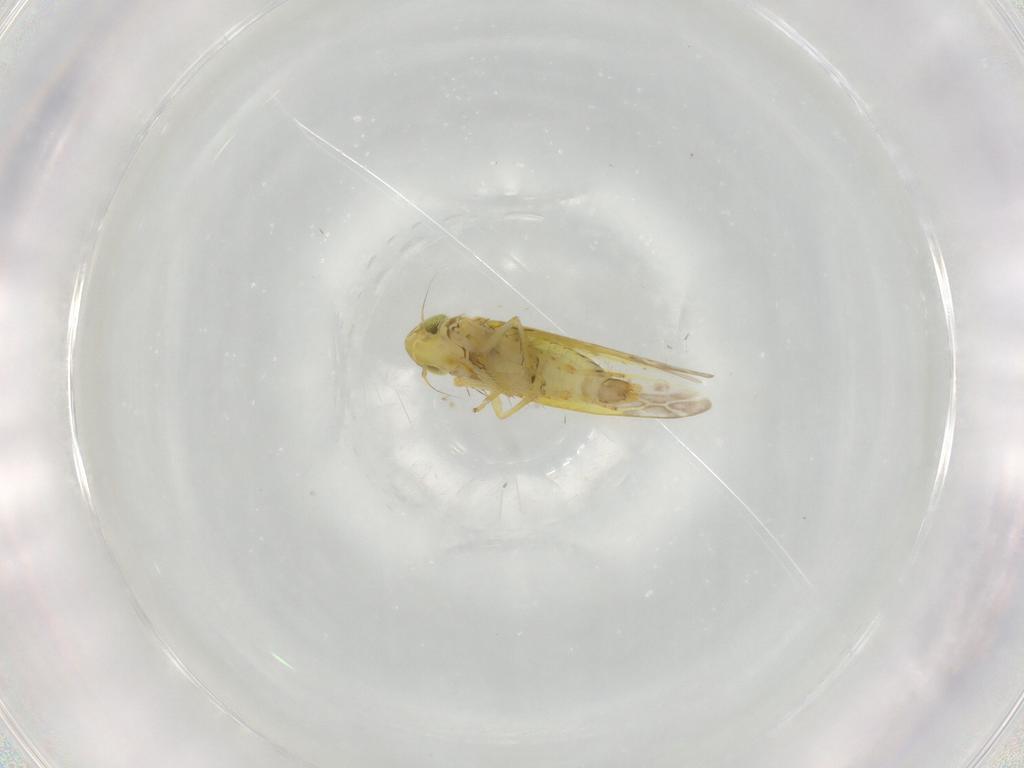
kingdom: Animalia
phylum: Arthropoda
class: Insecta
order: Hemiptera
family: Cicadellidae
